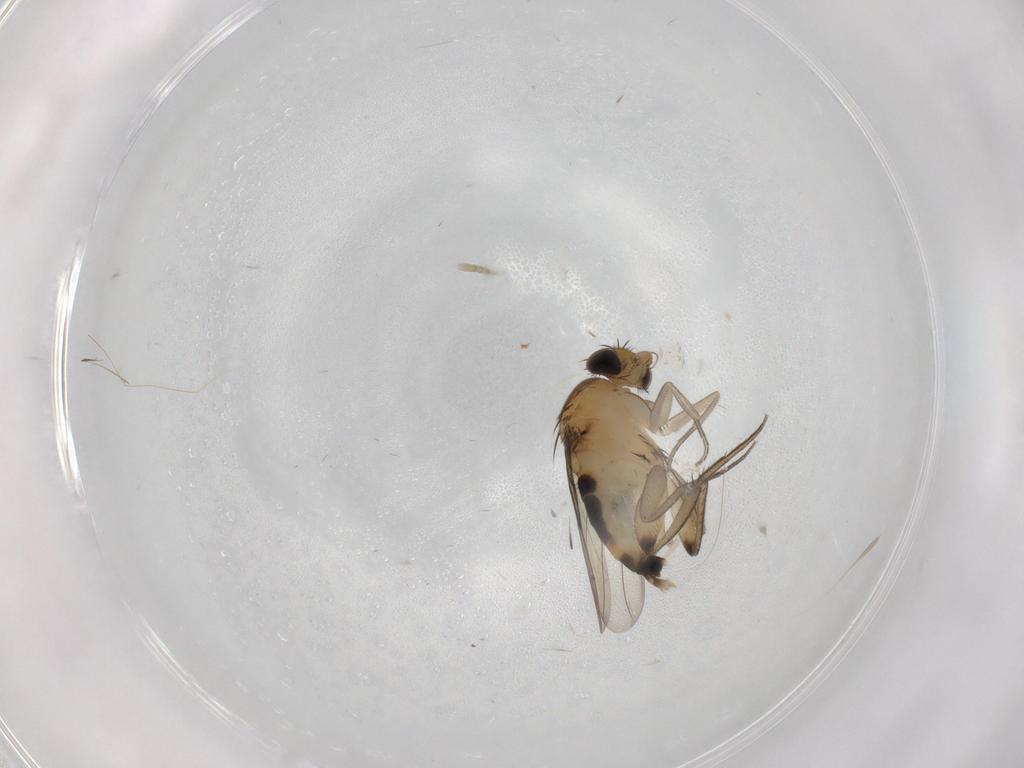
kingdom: Animalia
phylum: Arthropoda
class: Insecta
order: Diptera
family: Phoridae
